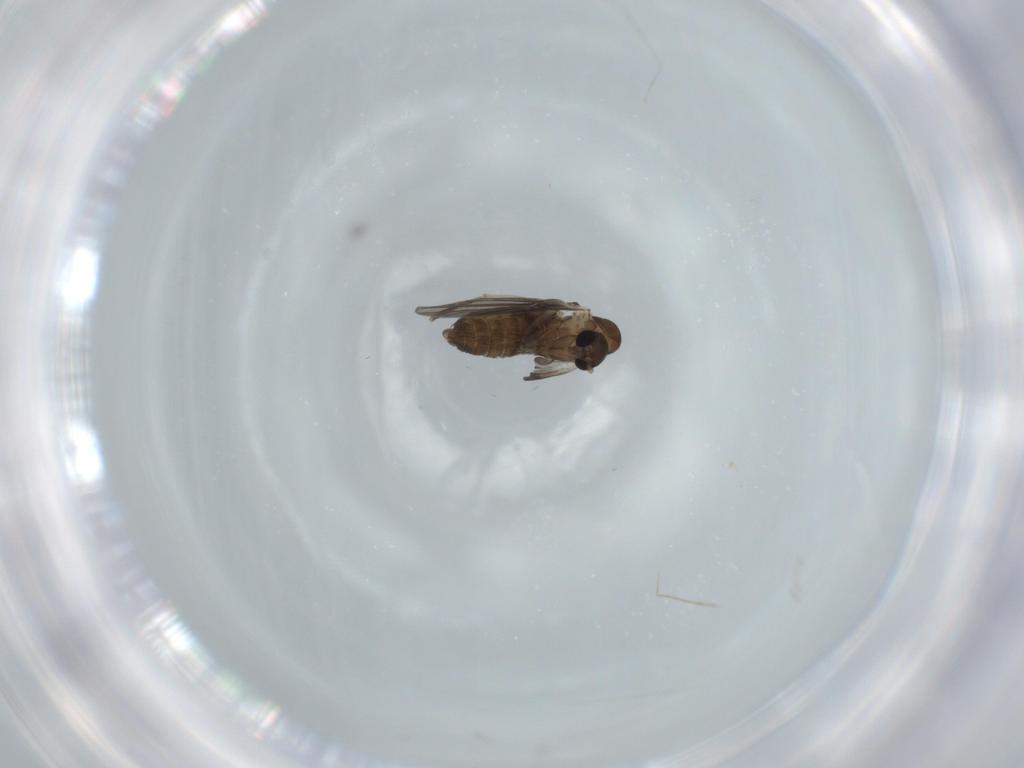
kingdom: Animalia
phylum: Arthropoda
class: Insecta
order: Diptera
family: Psychodidae
